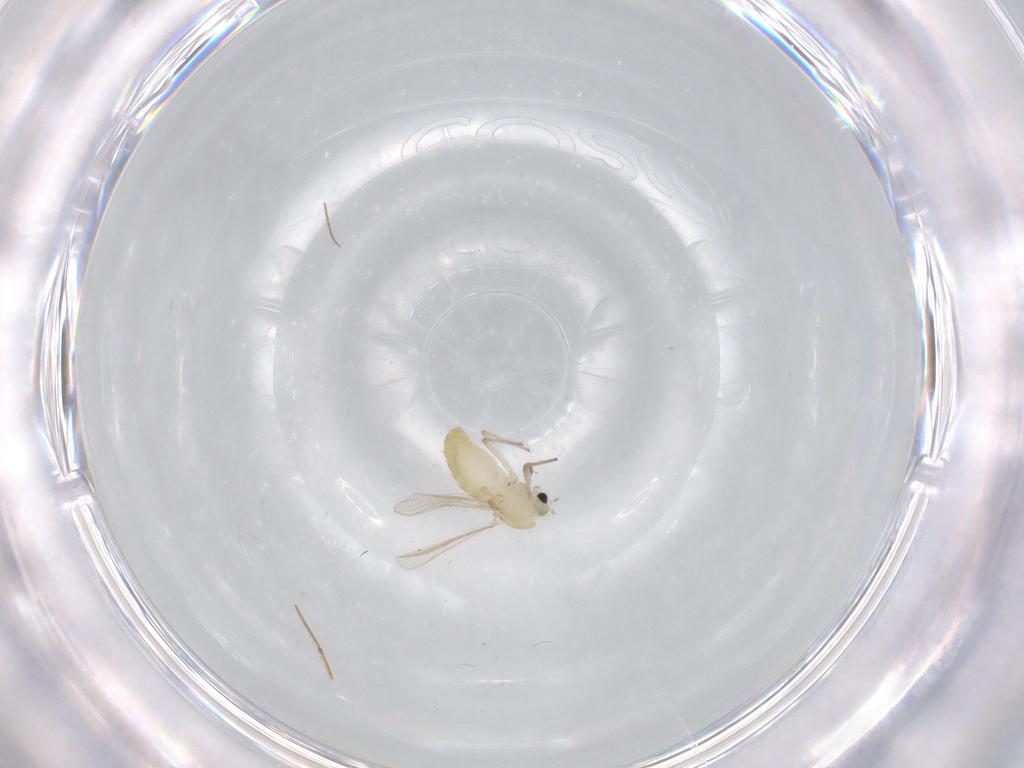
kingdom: Animalia
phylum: Arthropoda
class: Insecta
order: Diptera
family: Chironomidae
